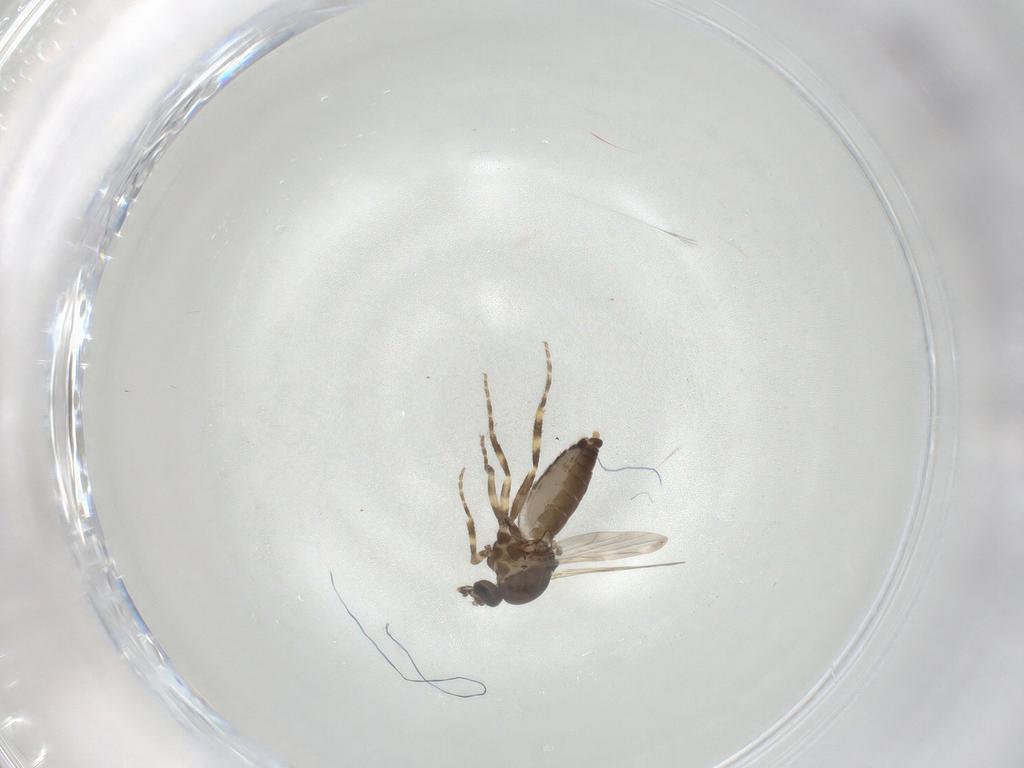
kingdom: Animalia
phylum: Arthropoda
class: Insecta
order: Diptera
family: Ceratopogonidae
